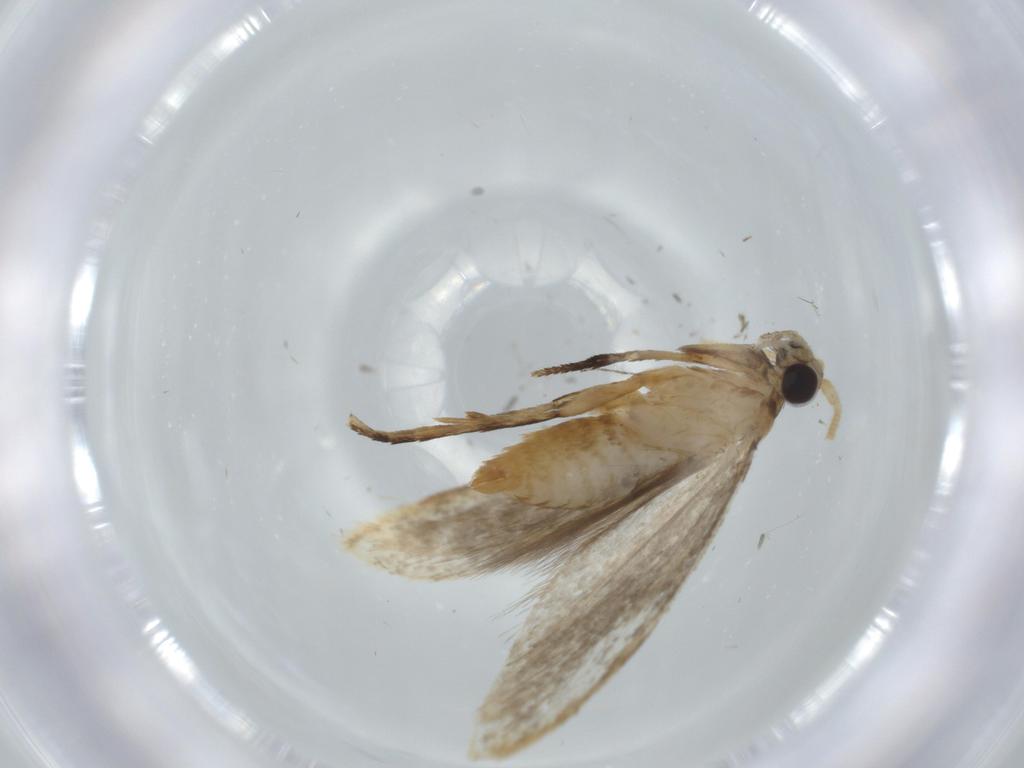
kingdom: Animalia
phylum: Arthropoda
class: Insecta
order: Lepidoptera
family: Tineidae
